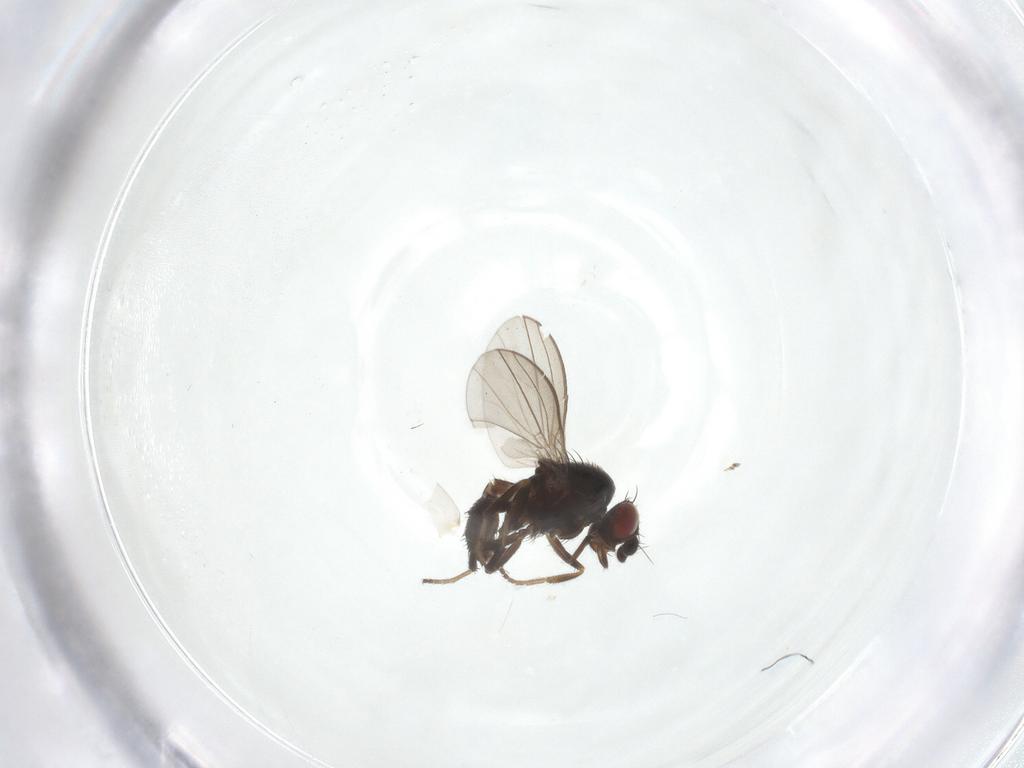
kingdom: Animalia
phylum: Arthropoda
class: Insecta
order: Diptera
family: Milichiidae
